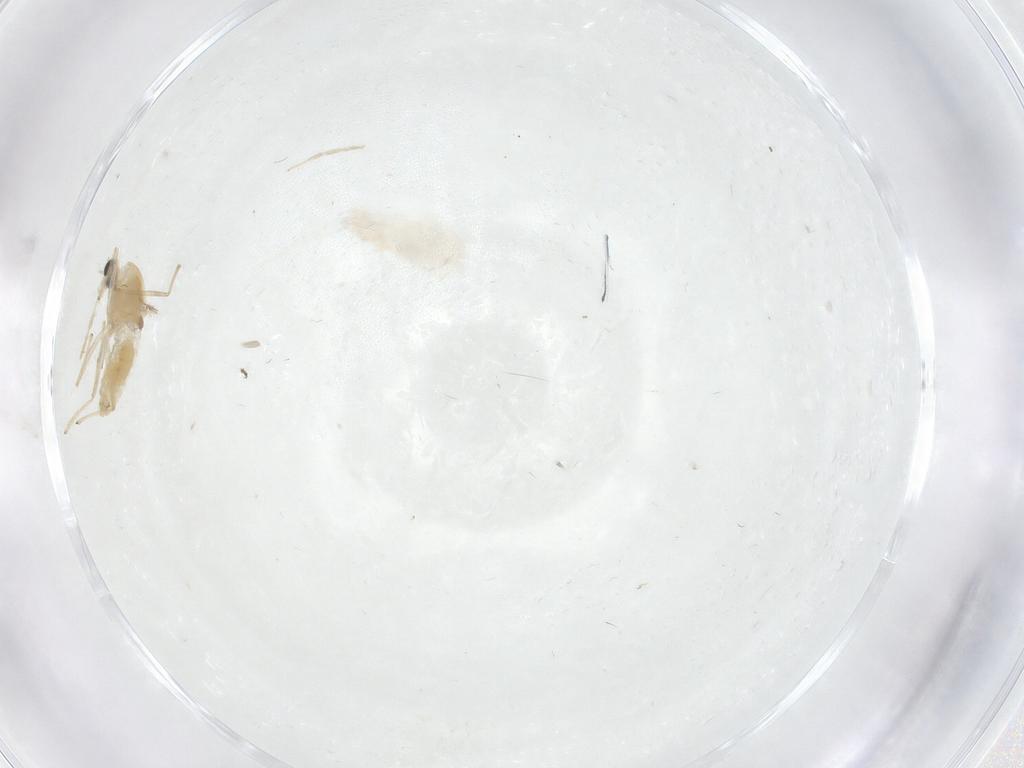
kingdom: Animalia
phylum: Arthropoda
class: Insecta
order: Diptera
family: Chironomidae
